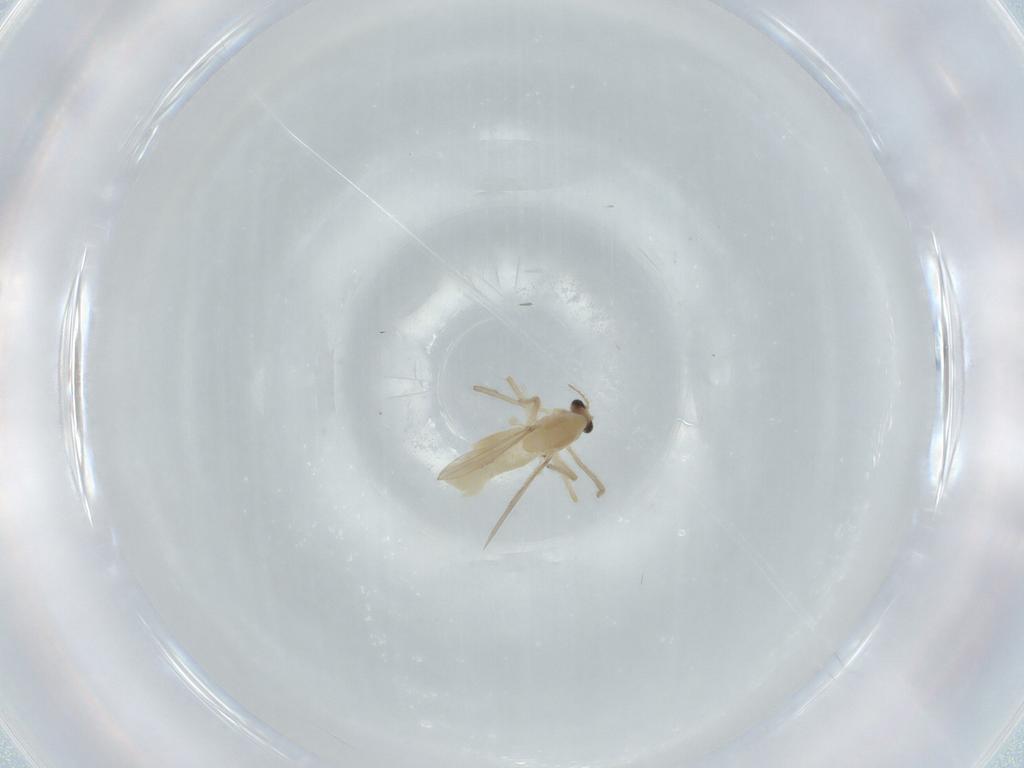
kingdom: Animalia
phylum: Arthropoda
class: Insecta
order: Diptera
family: Chironomidae
